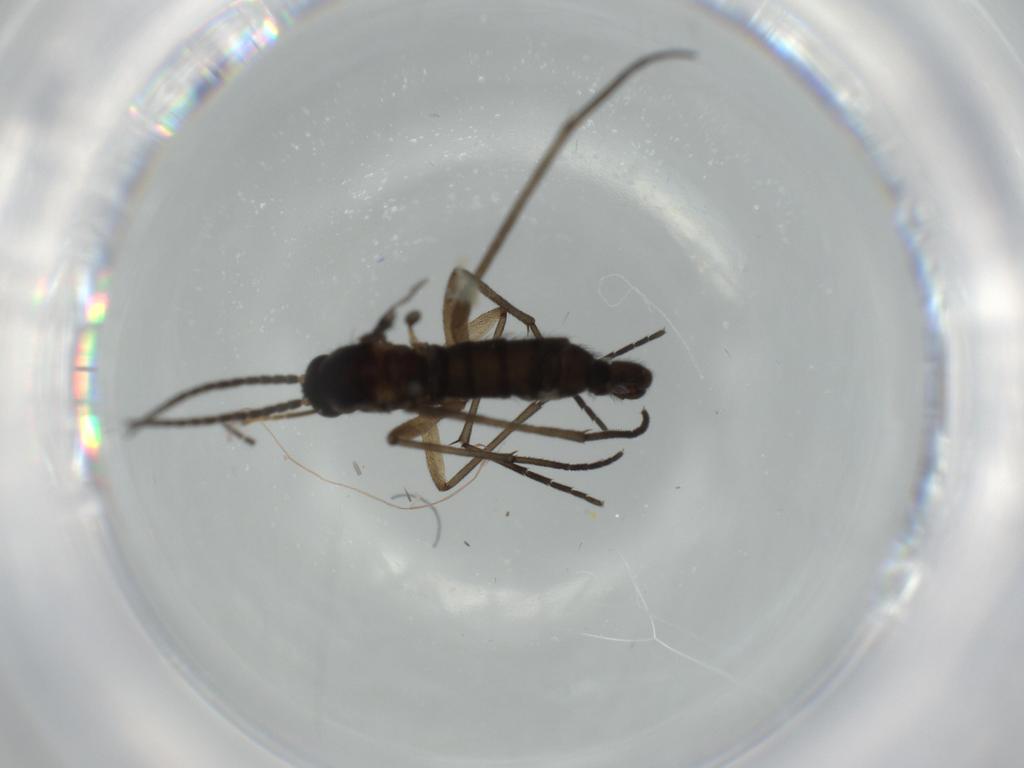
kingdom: Animalia
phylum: Arthropoda
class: Insecta
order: Diptera
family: Sciaridae
